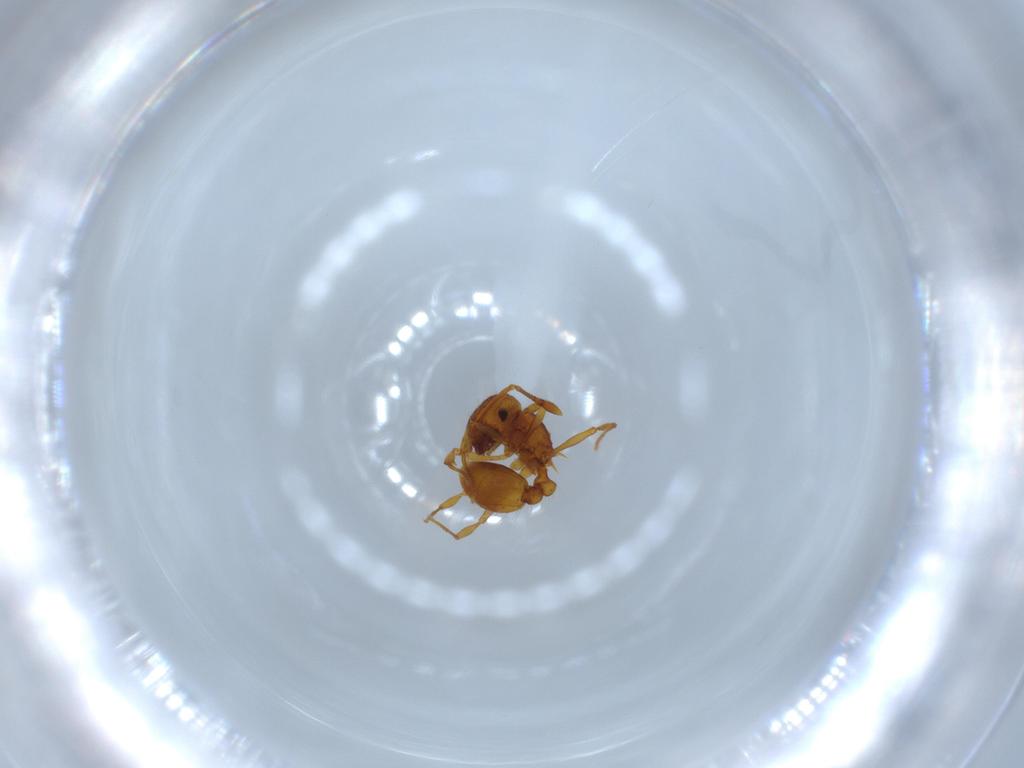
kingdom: Animalia
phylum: Arthropoda
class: Insecta
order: Hymenoptera
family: Formicidae
